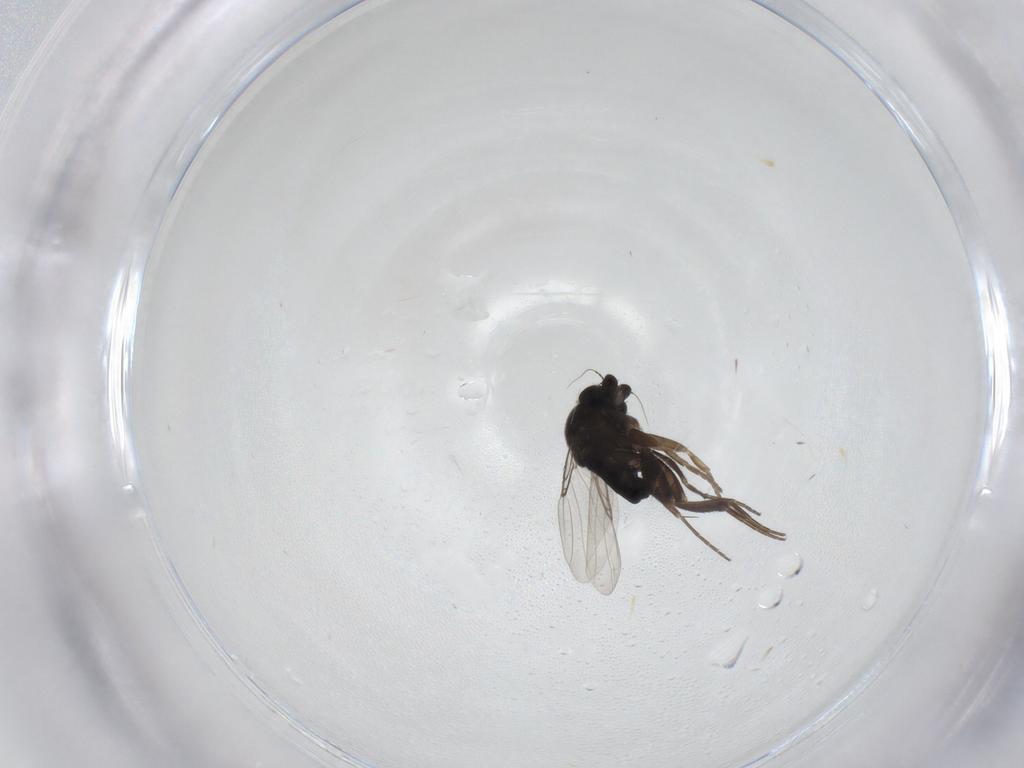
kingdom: Animalia
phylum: Arthropoda
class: Insecta
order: Diptera
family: Phoridae
